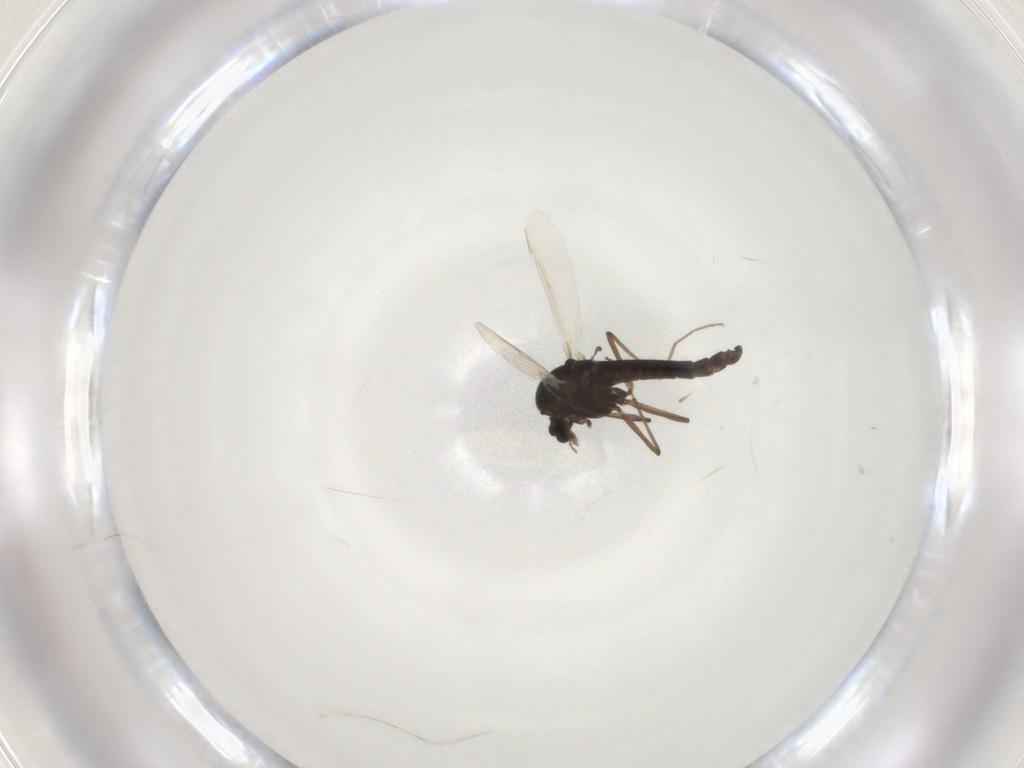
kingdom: Animalia
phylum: Arthropoda
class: Insecta
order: Diptera
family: Chironomidae
